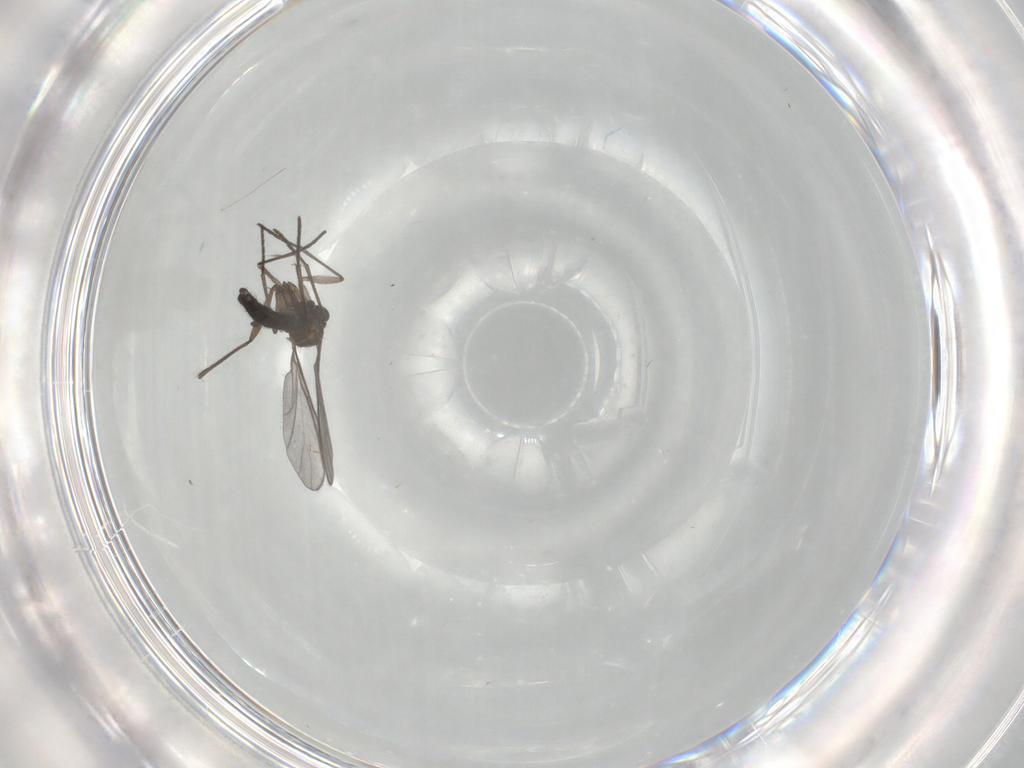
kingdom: Animalia
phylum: Arthropoda
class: Insecta
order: Diptera
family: Cecidomyiidae
